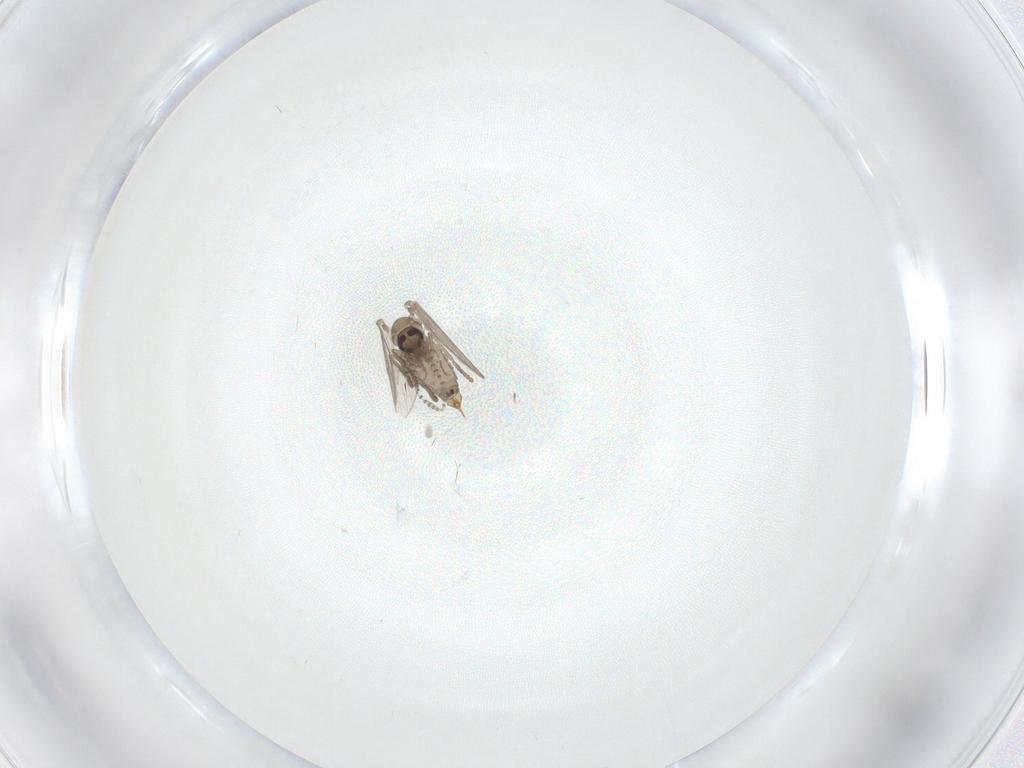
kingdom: Animalia
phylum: Arthropoda
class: Insecta
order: Diptera
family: Psychodidae
